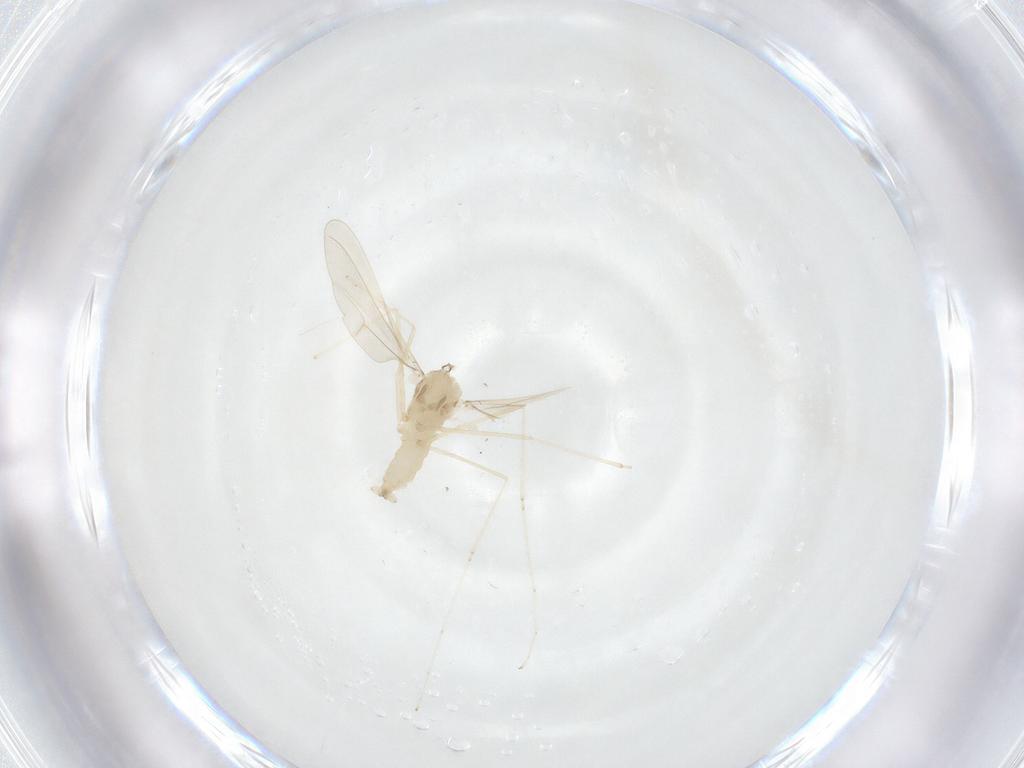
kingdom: Animalia
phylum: Arthropoda
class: Insecta
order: Diptera
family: Cecidomyiidae
